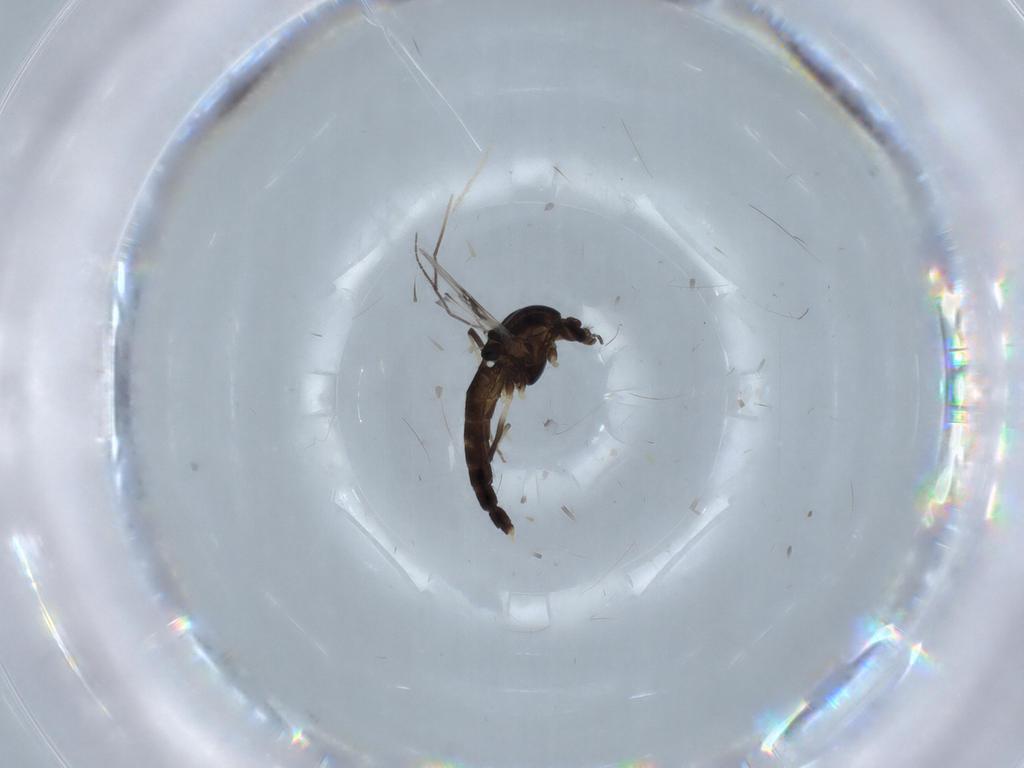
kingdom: Animalia
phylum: Arthropoda
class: Insecta
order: Diptera
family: Chironomidae
